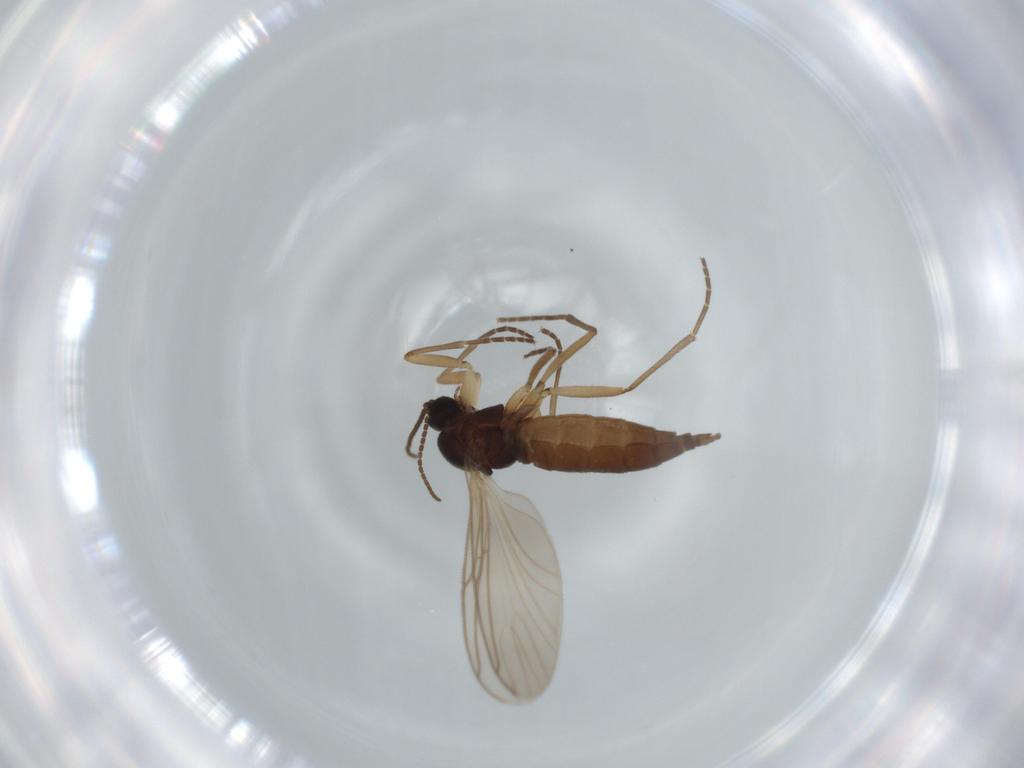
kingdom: Animalia
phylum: Arthropoda
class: Insecta
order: Diptera
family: Sciaridae
